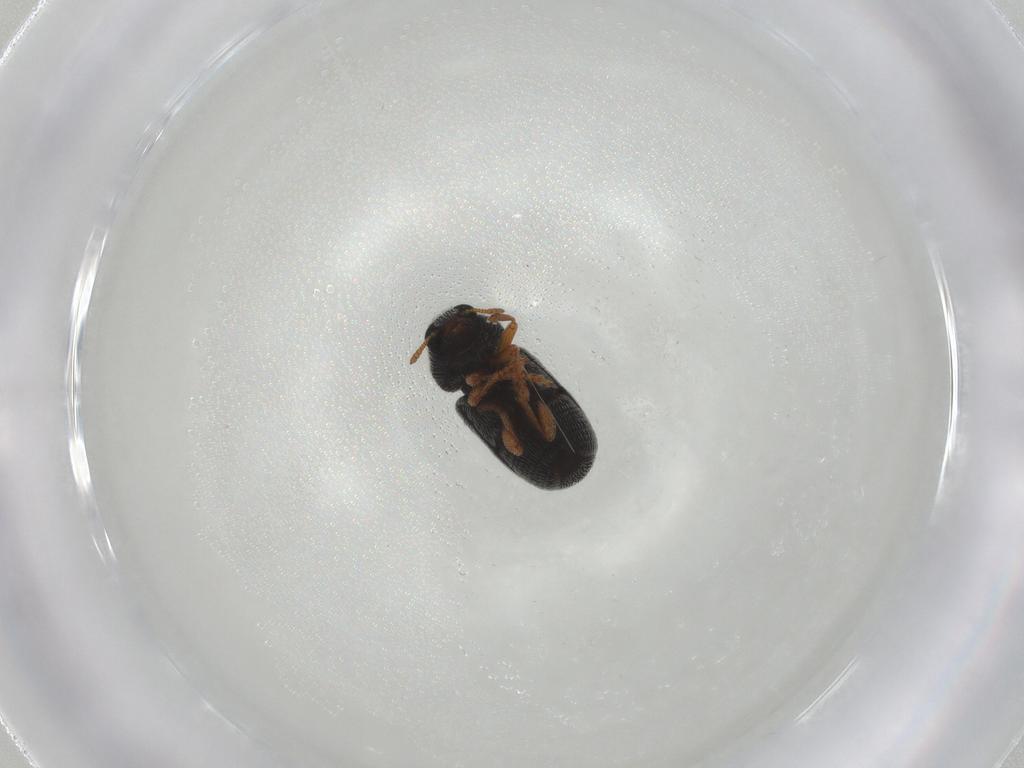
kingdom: Animalia
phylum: Arthropoda
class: Insecta
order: Coleoptera
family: Anthribidae
